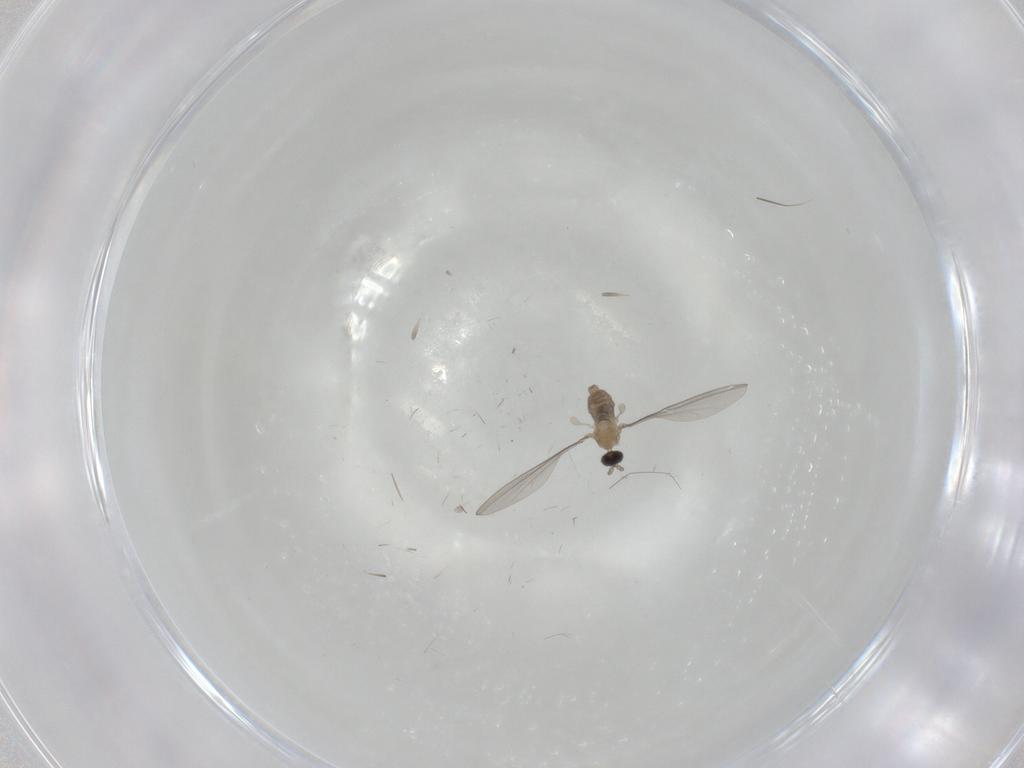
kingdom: Animalia
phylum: Arthropoda
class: Insecta
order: Diptera
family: Cecidomyiidae
